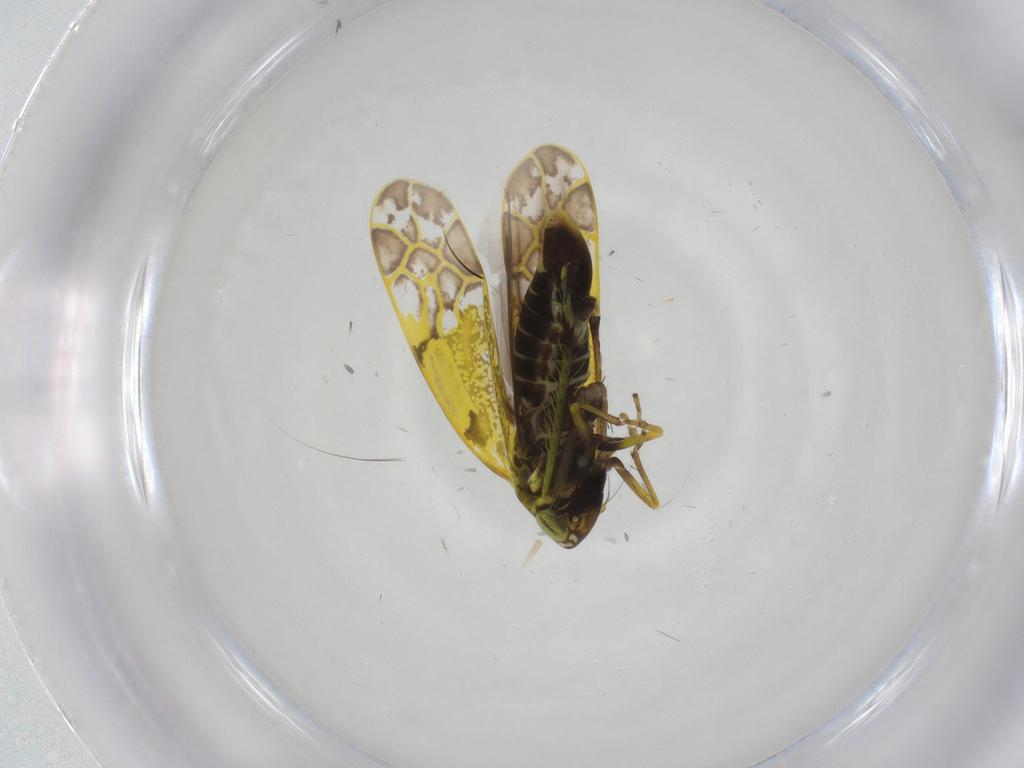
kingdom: Animalia
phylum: Arthropoda
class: Insecta
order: Hemiptera
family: Cicadellidae
